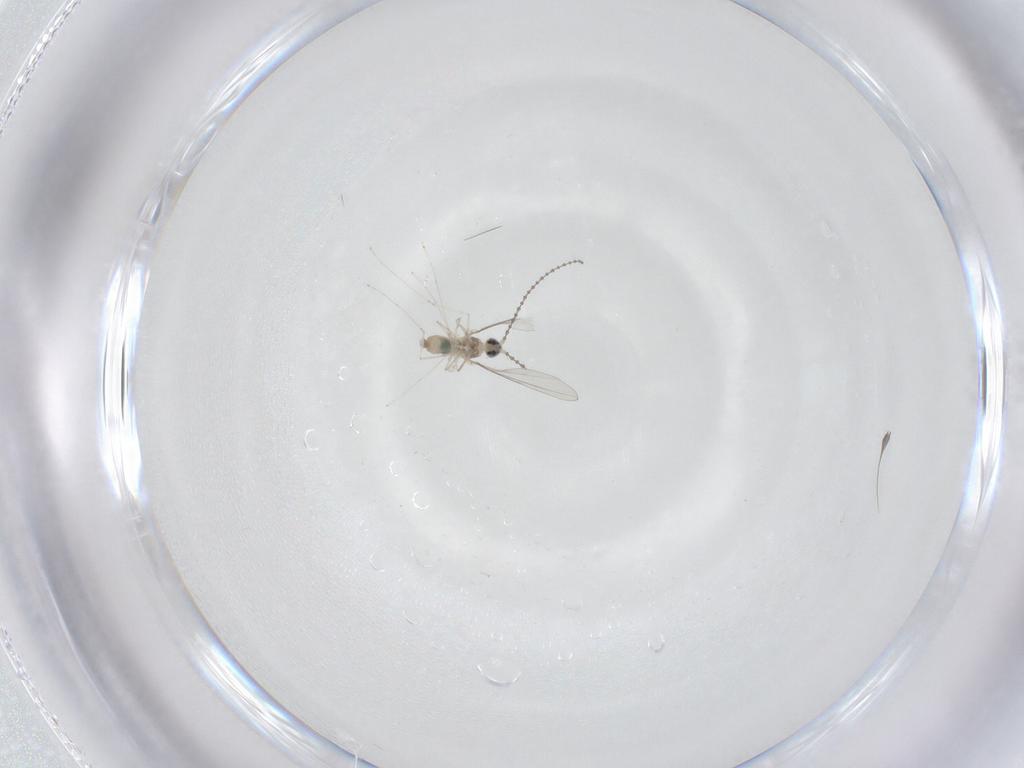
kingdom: Animalia
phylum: Arthropoda
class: Insecta
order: Diptera
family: Cecidomyiidae
